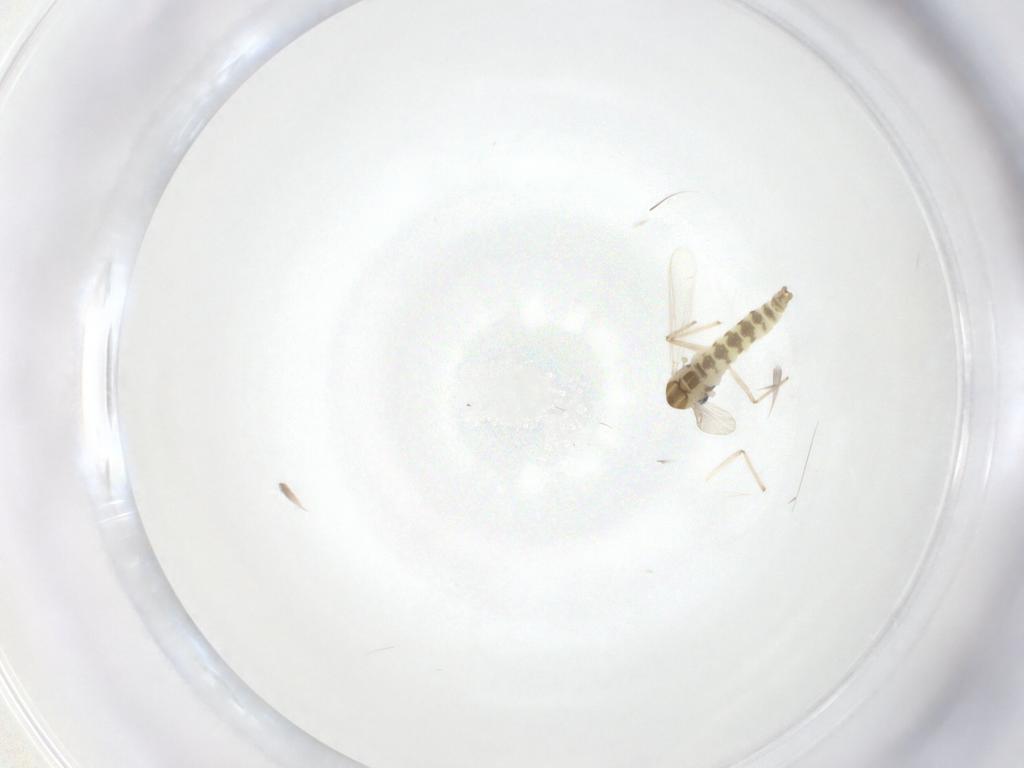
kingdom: Animalia
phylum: Arthropoda
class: Insecta
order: Diptera
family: Chironomidae
